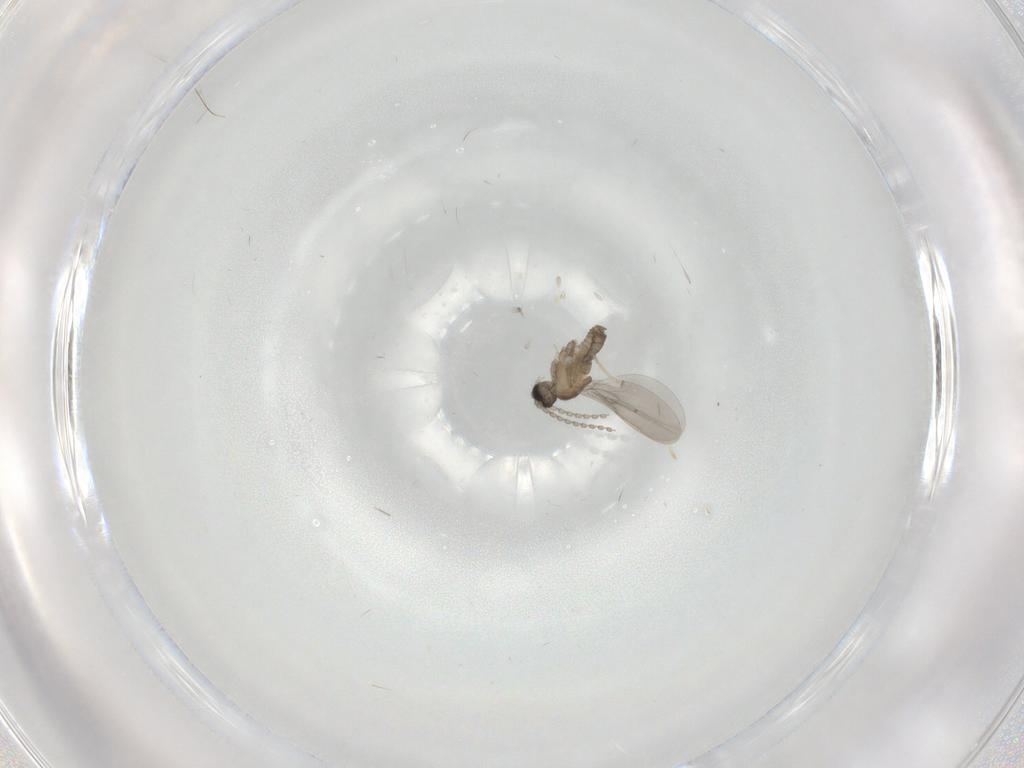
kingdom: Animalia
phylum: Arthropoda
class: Insecta
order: Diptera
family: Cecidomyiidae
